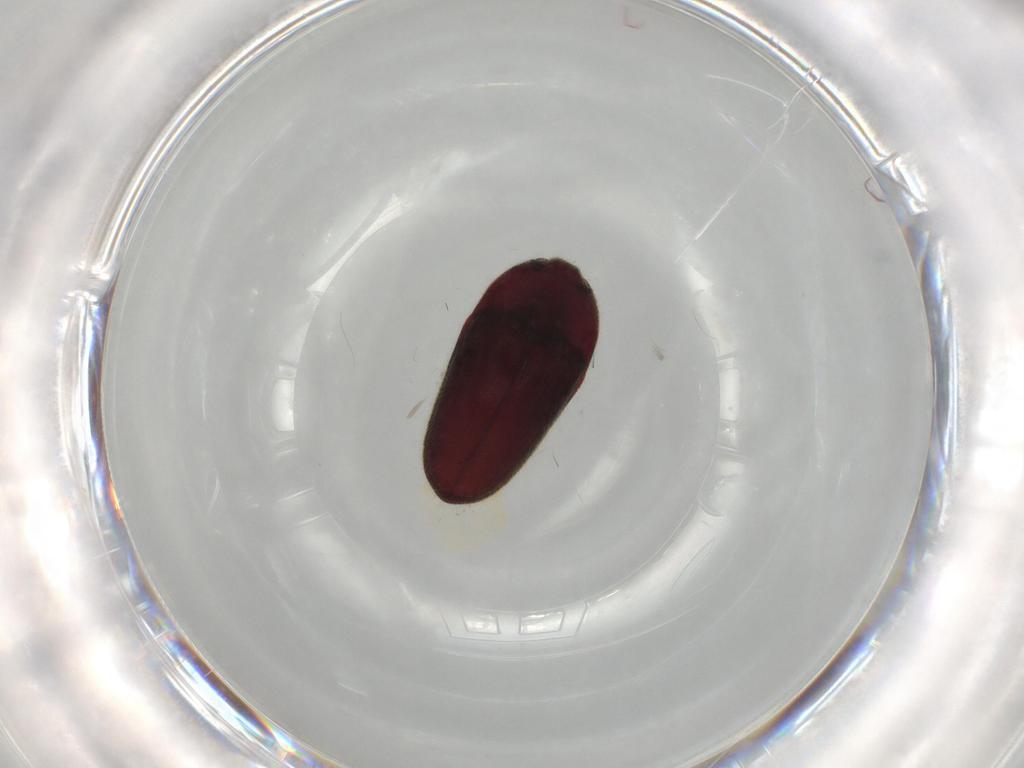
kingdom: Animalia
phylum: Arthropoda
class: Insecta
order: Coleoptera
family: Throscidae
